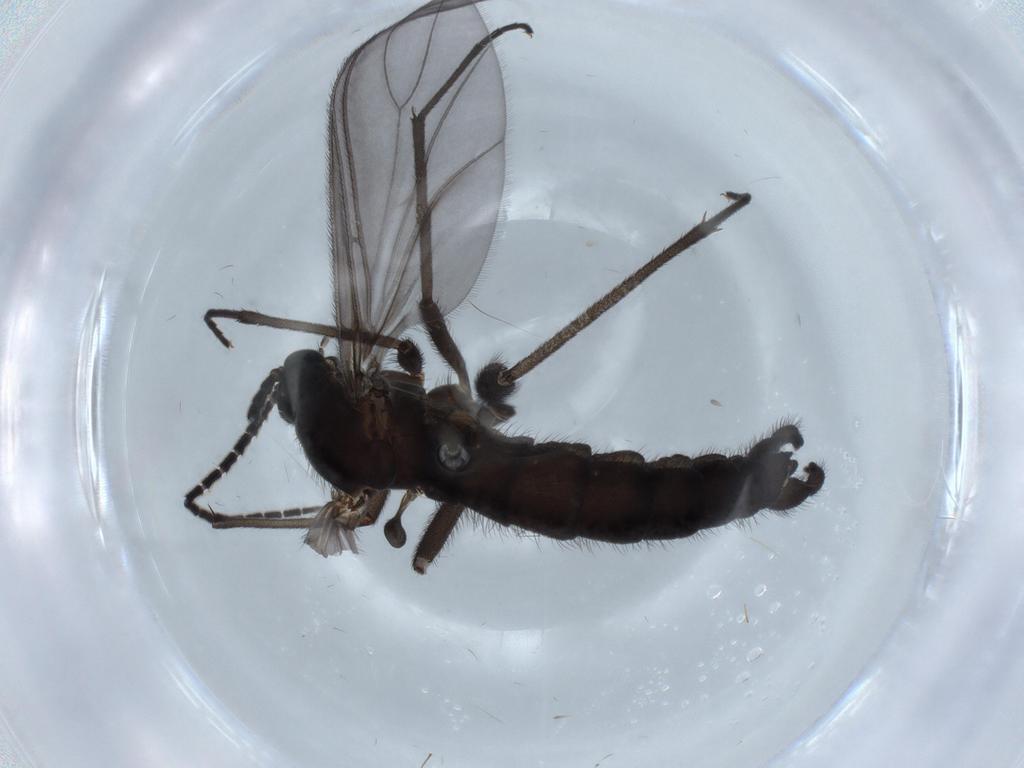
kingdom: Animalia
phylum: Arthropoda
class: Insecta
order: Diptera
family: Sciaridae
